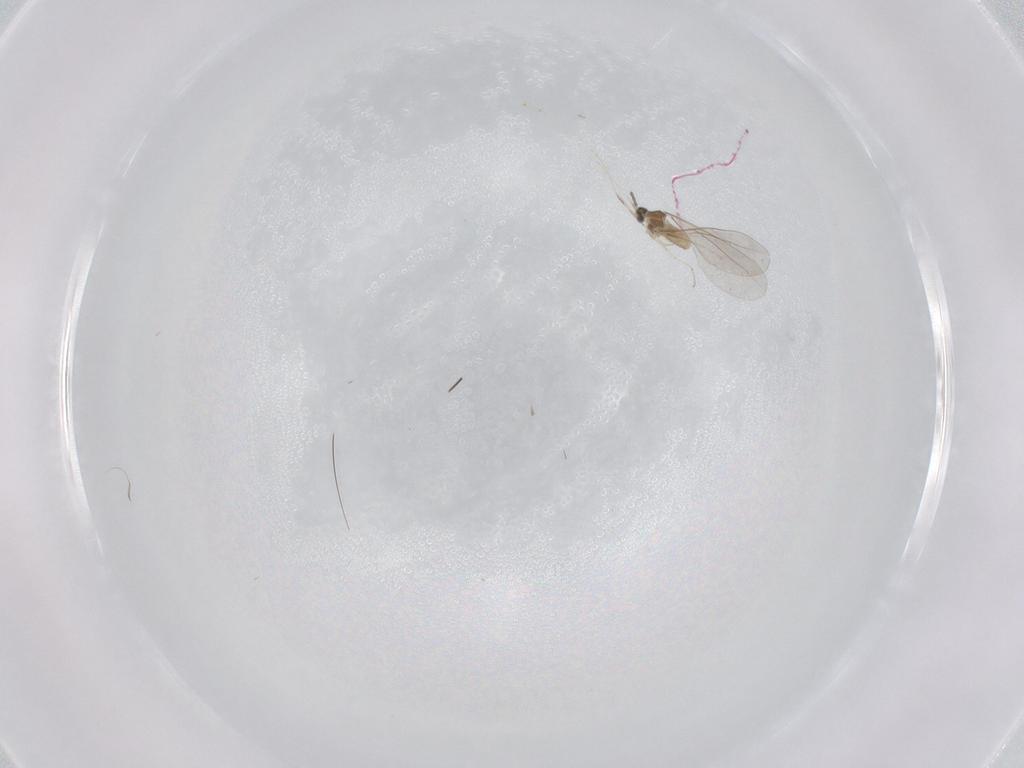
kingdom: Animalia
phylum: Arthropoda
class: Insecta
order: Diptera
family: Cecidomyiidae
